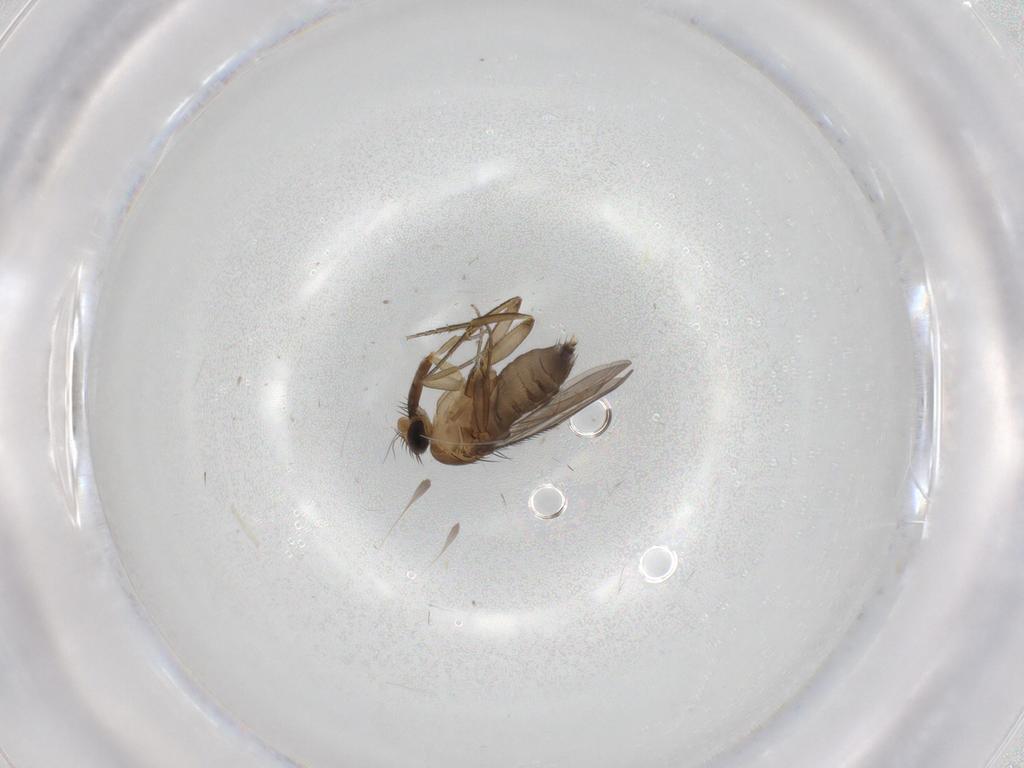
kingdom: Animalia
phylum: Arthropoda
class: Insecta
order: Diptera
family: Phoridae
